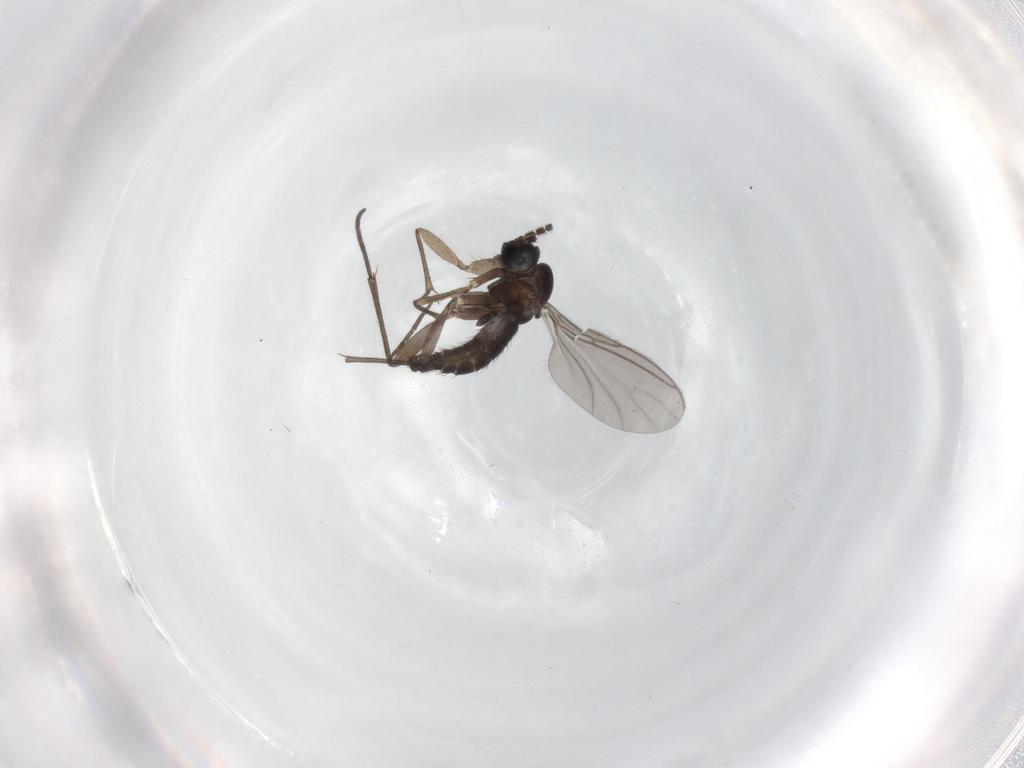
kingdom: Animalia
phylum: Arthropoda
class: Insecta
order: Diptera
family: Sciaridae
